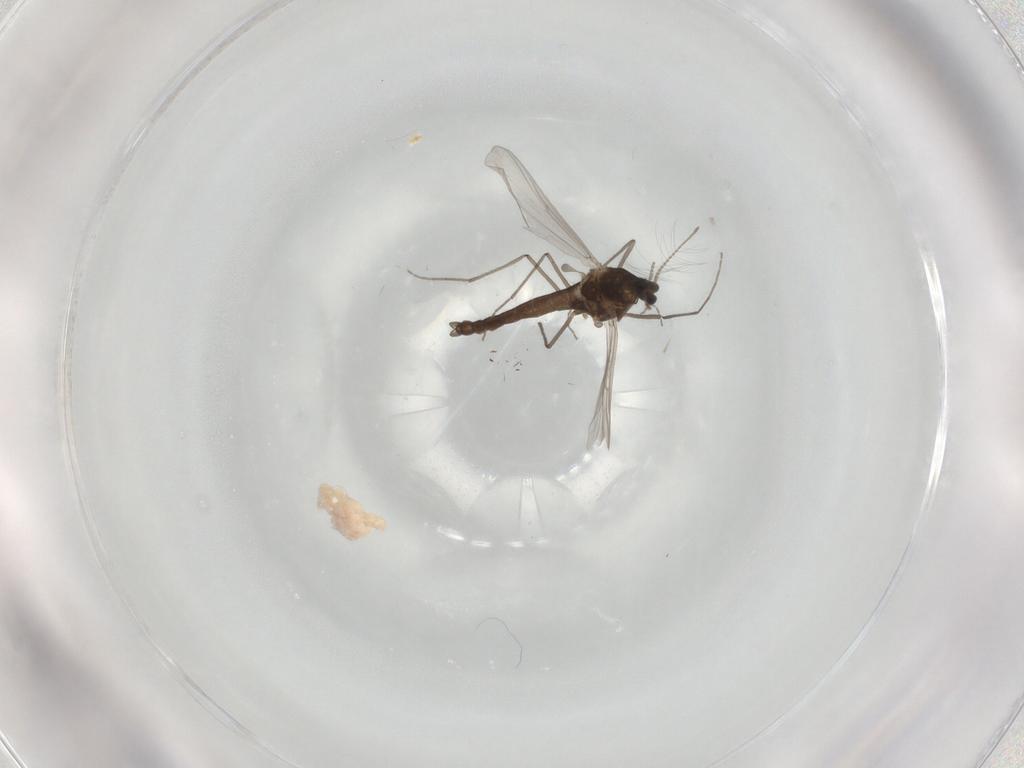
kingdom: Animalia
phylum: Arthropoda
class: Insecta
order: Diptera
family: Chironomidae
